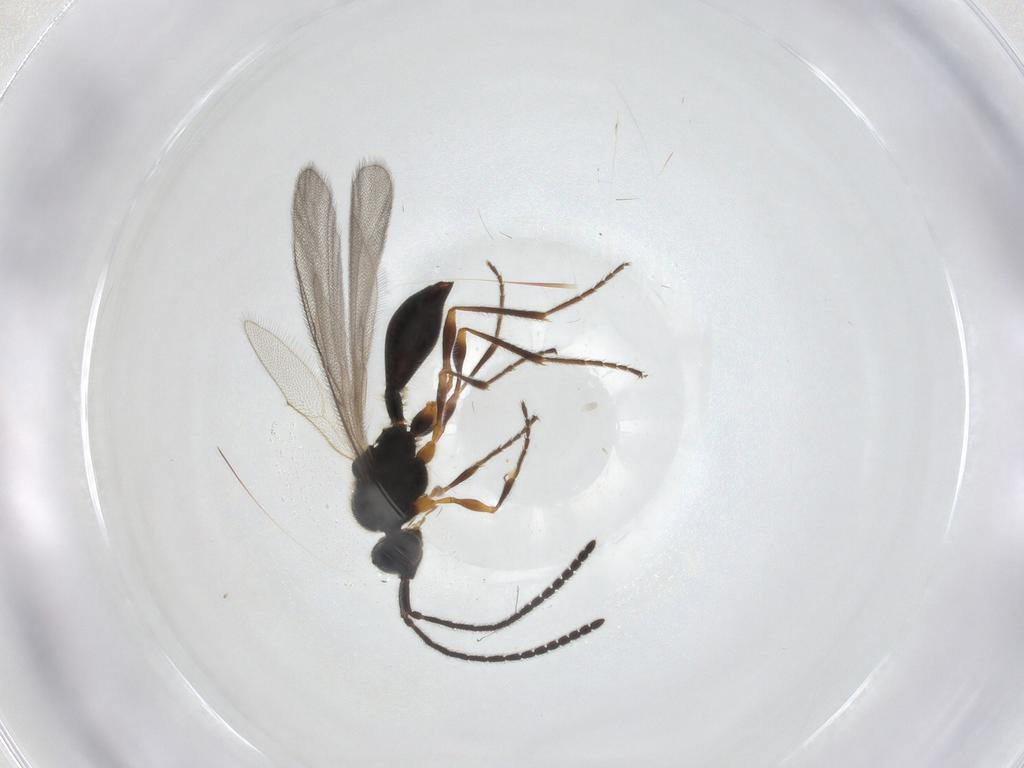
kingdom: Animalia
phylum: Arthropoda
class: Insecta
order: Hymenoptera
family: Diapriidae
